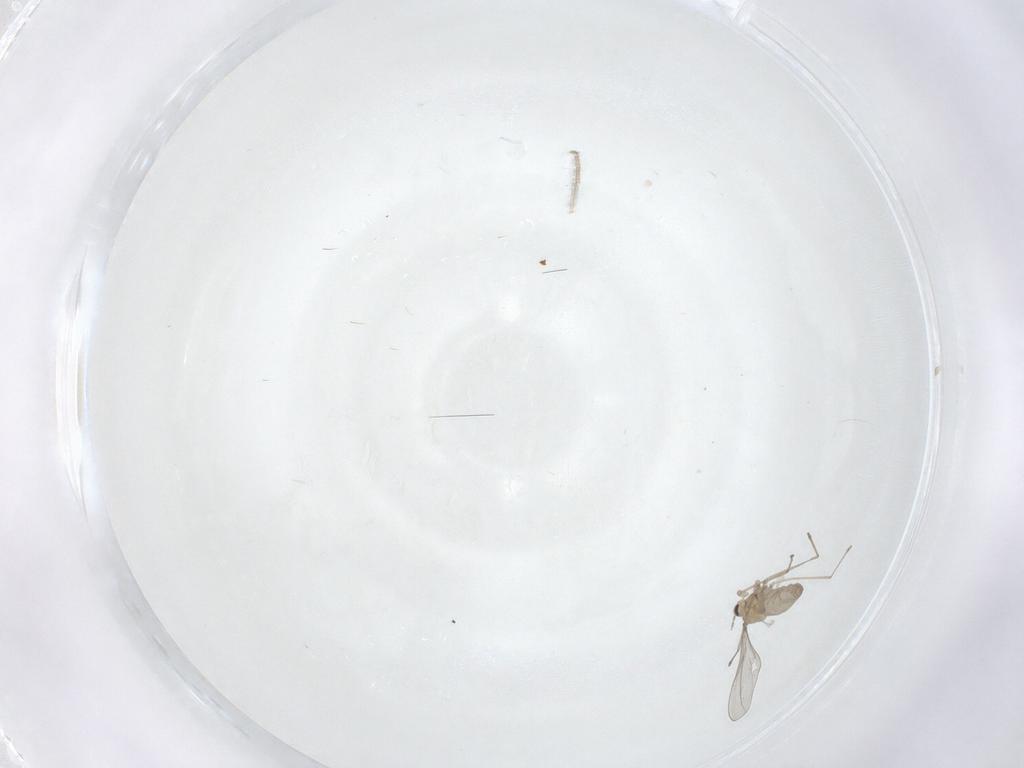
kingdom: Animalia
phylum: Arthropoda
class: Insecta
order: Diptera
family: Cecidomyiidae
